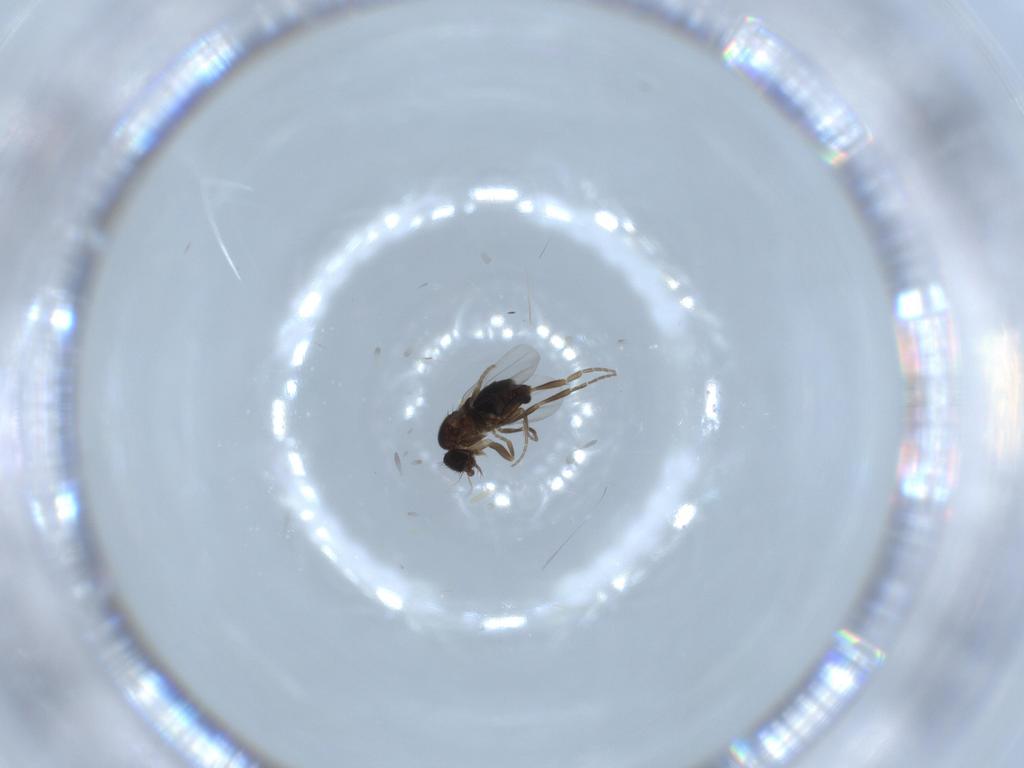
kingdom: Animalia
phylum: Arthropoda
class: Insecta
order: Diptera
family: Phoridae
